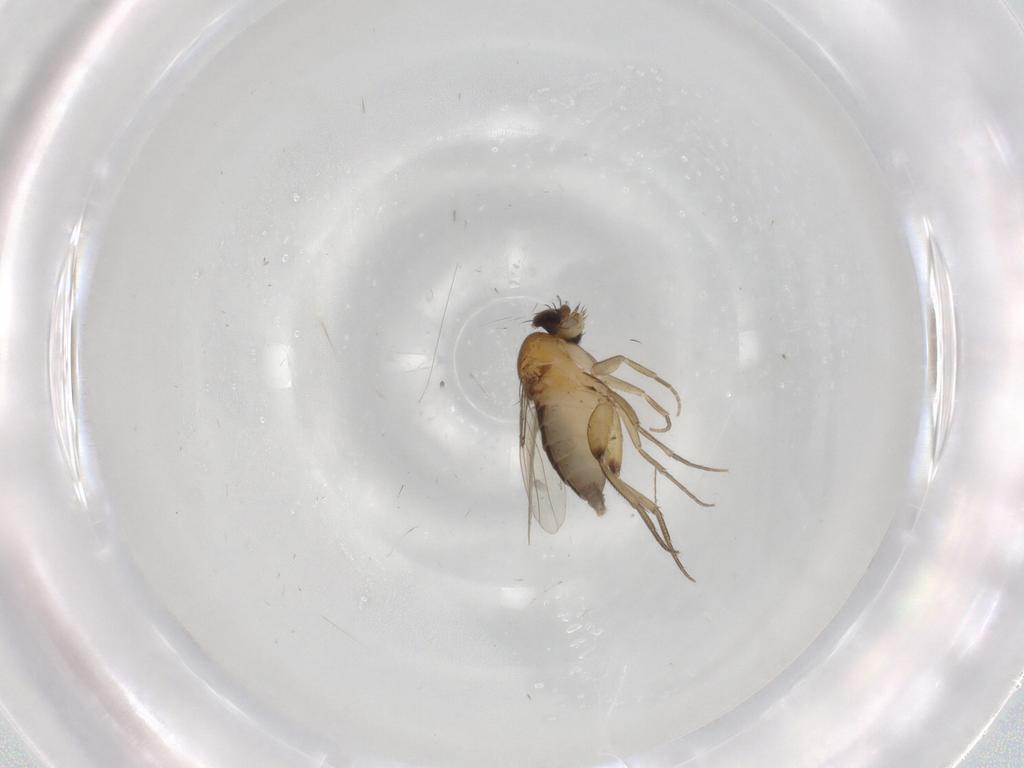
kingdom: Animalia
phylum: Arthropoda
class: Insecta
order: Diptera
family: Phoridae
